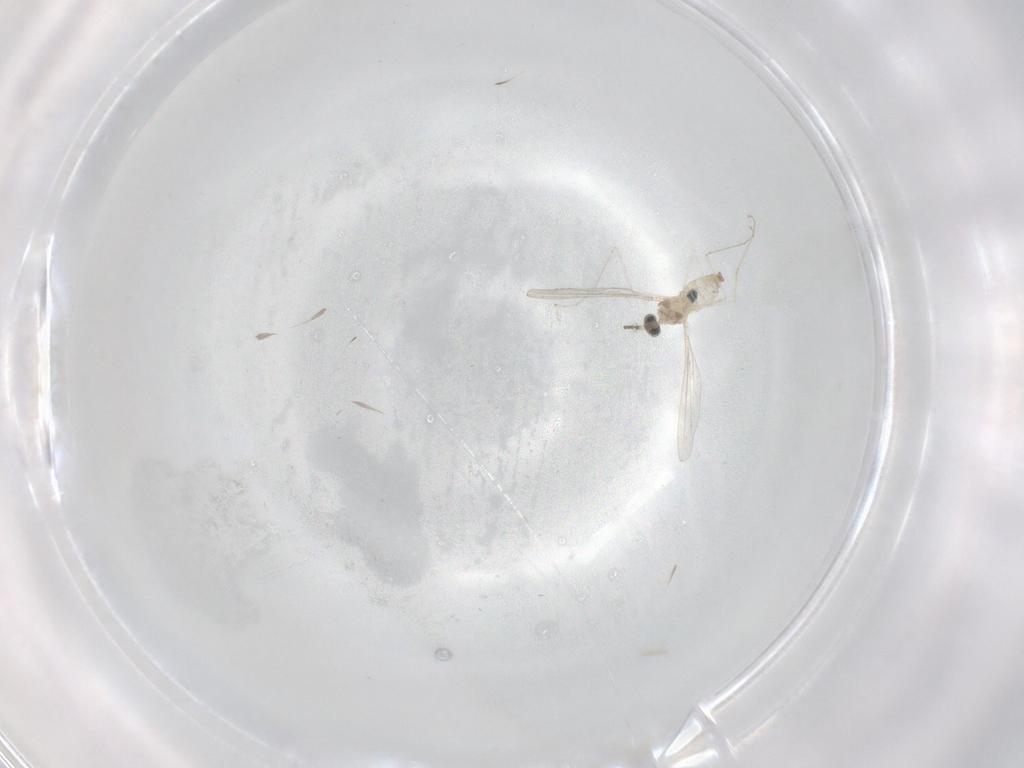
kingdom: Animalia
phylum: Arthropoda
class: Insecta
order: Diptera
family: Cecidomyiidae
